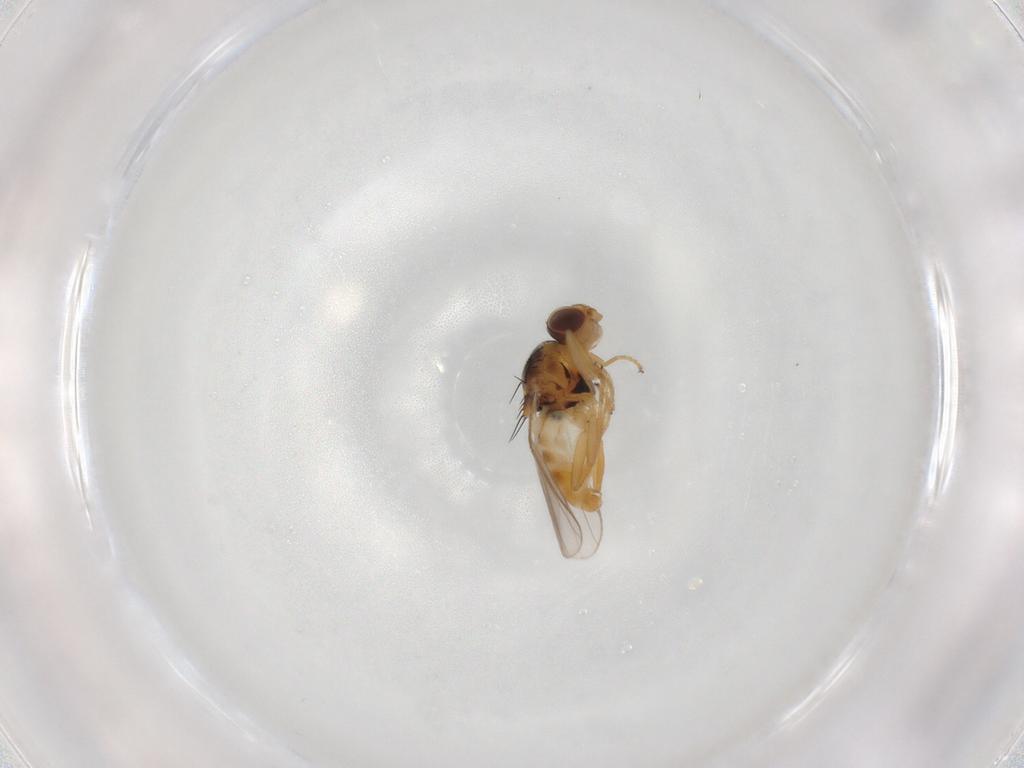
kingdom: Animalia
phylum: Arthropoda
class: Insecta
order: Diptera
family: Chloropidae
